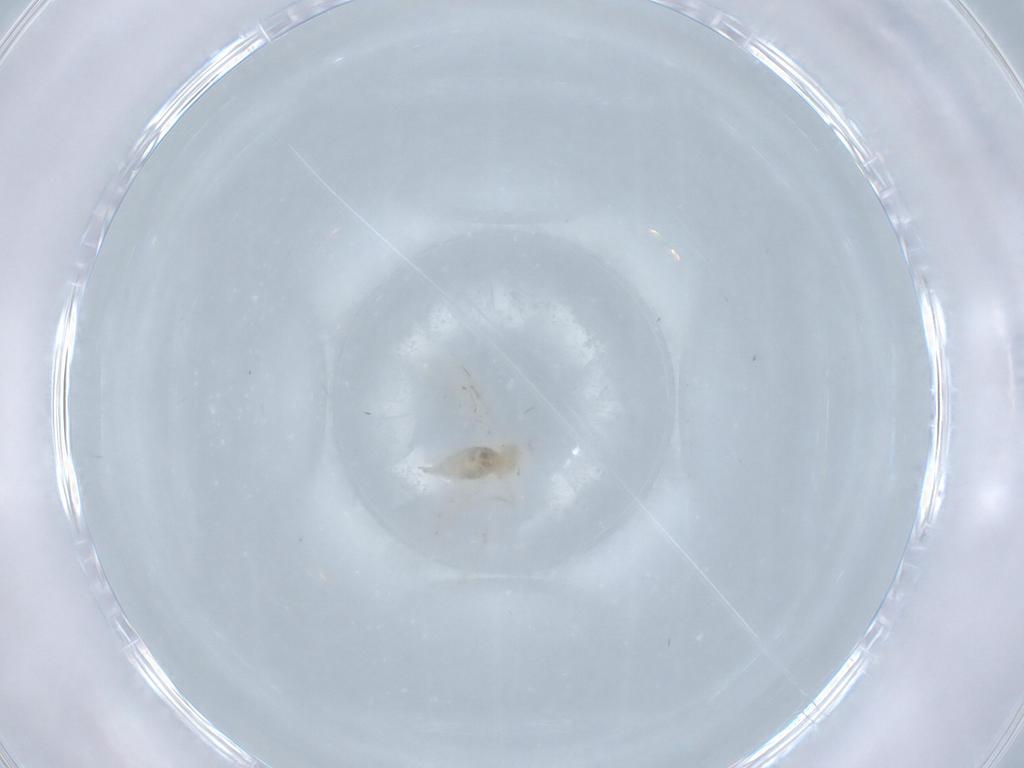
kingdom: Animalia
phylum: Arthropoda
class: Insecta
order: Diptera
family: Cecidomyiidae
